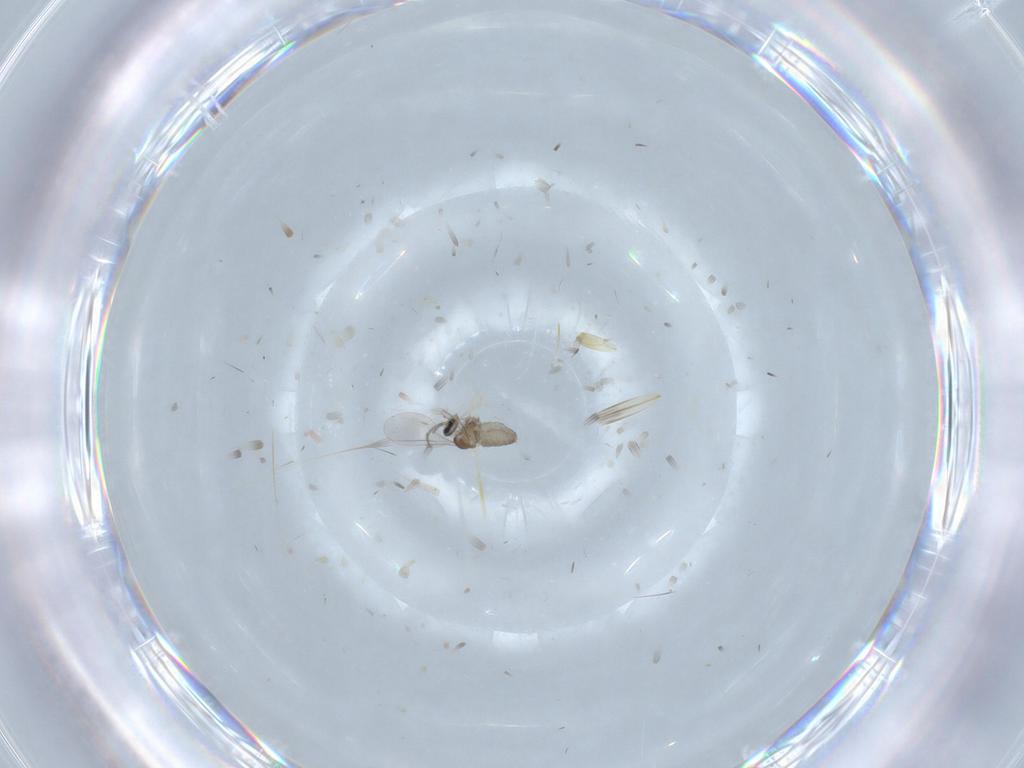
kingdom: Animalia
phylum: Arthropoda
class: Insecta
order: Diptera
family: Cecidomyiidae
